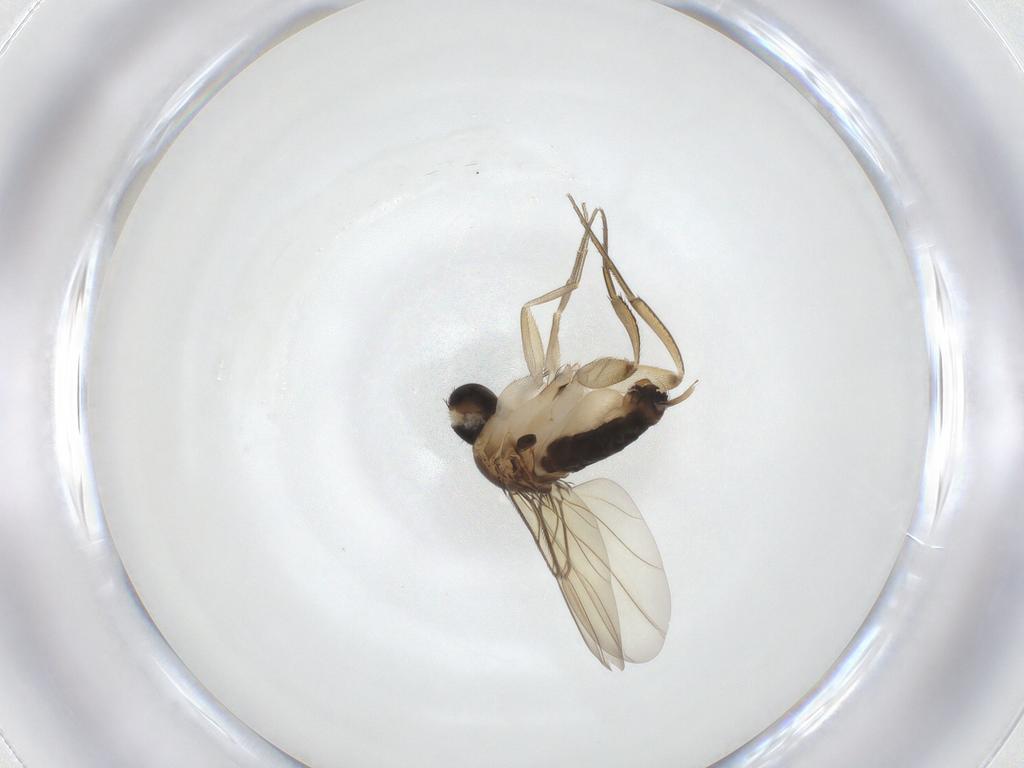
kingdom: Animalia
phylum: Arthropoda
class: Insecta
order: Diptera
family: Phoridae
